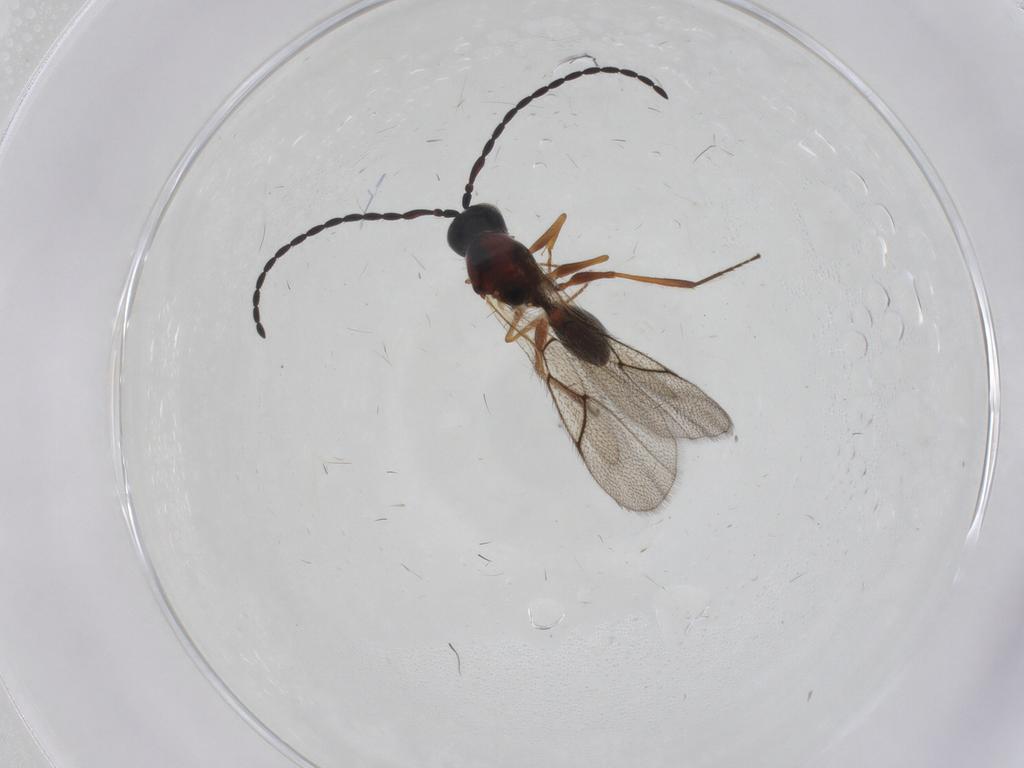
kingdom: Animalia
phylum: Arthropoda
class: Insecta
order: Hymenoptera
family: Figitidae
